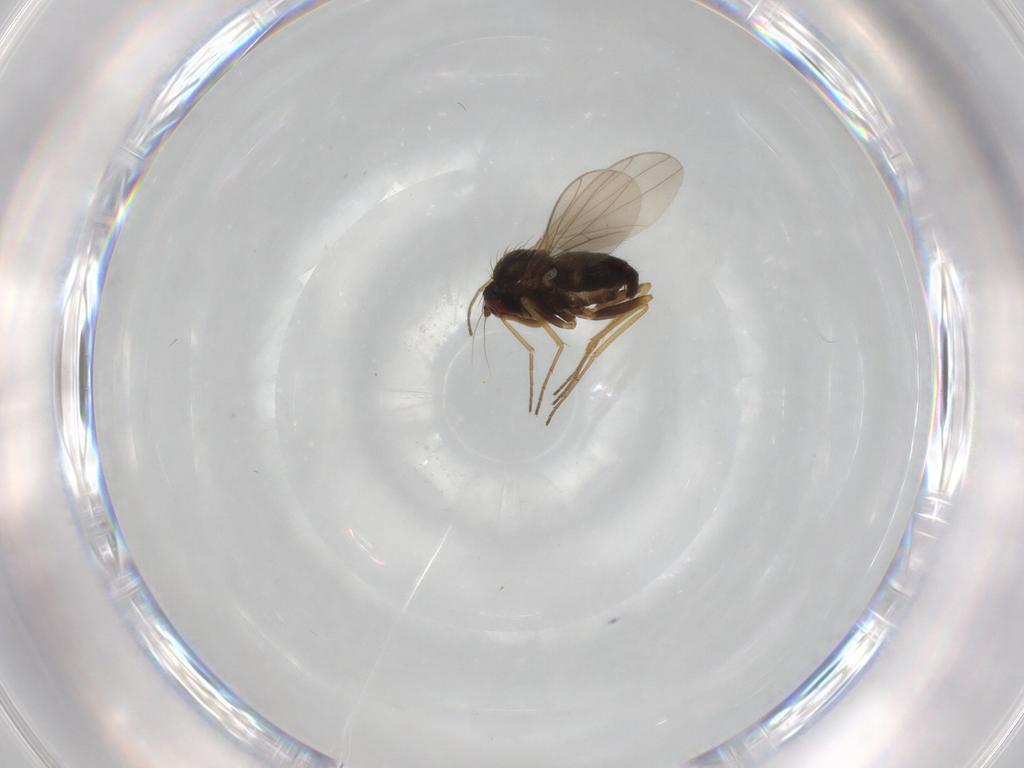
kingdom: Animalia
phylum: Arthropoda
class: Insecta
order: Diptera
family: Dolichopodidae
